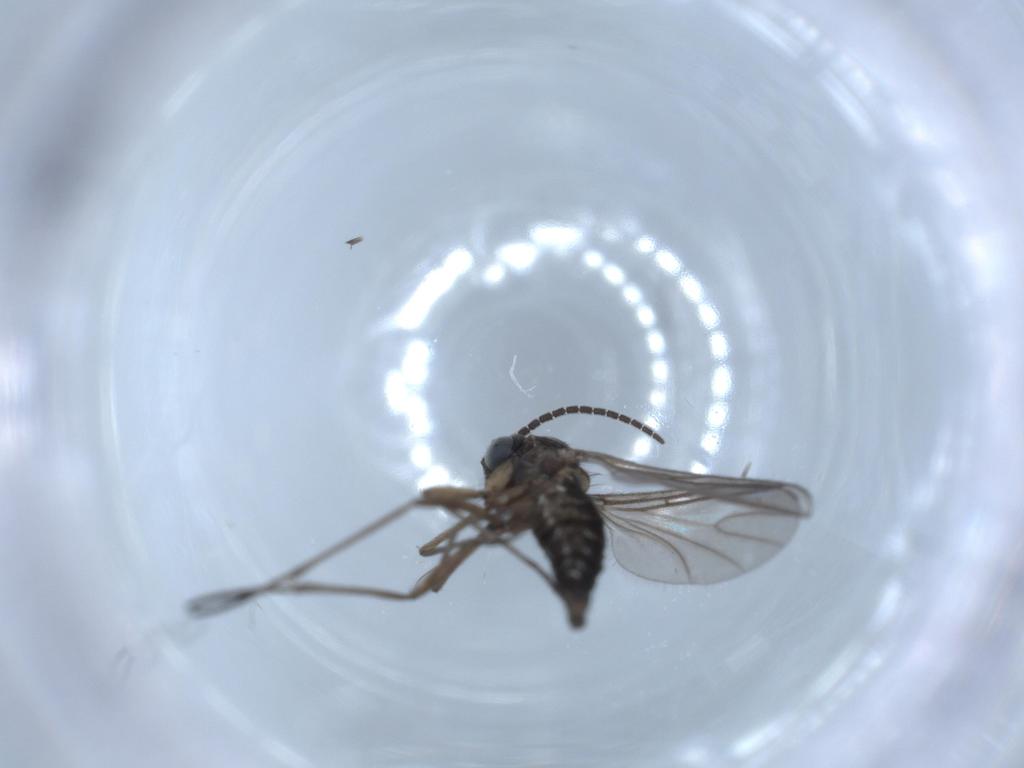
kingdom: Animalia
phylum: Arthropoda
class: Insecta
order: Diptera
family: Sciaridae
